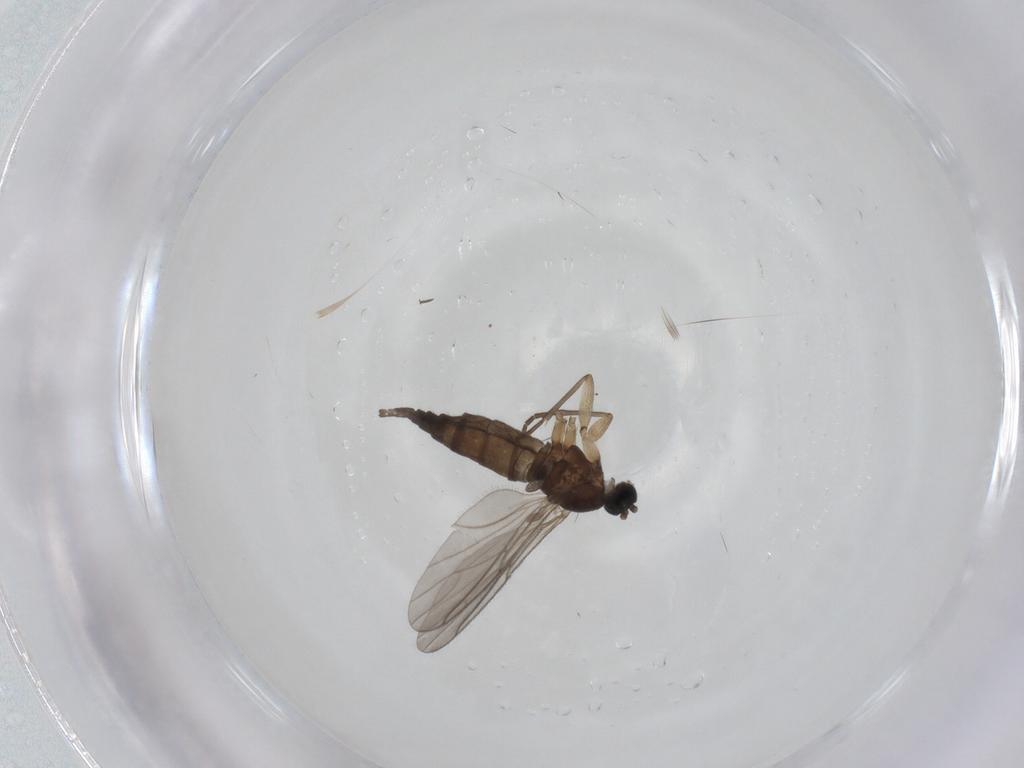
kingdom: Animalia
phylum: Arthropoda
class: Insecta
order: Diptera
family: Sciaridae
